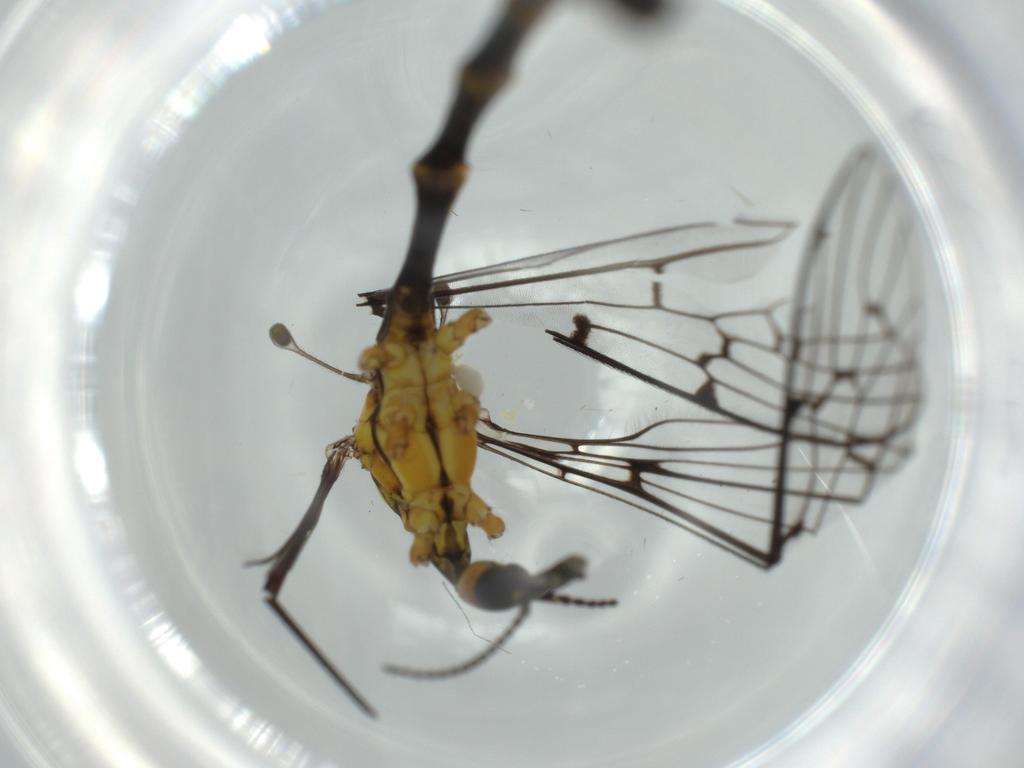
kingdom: Animalia
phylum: Arthropoda
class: Insecta
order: Diptera
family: Limoniidae
